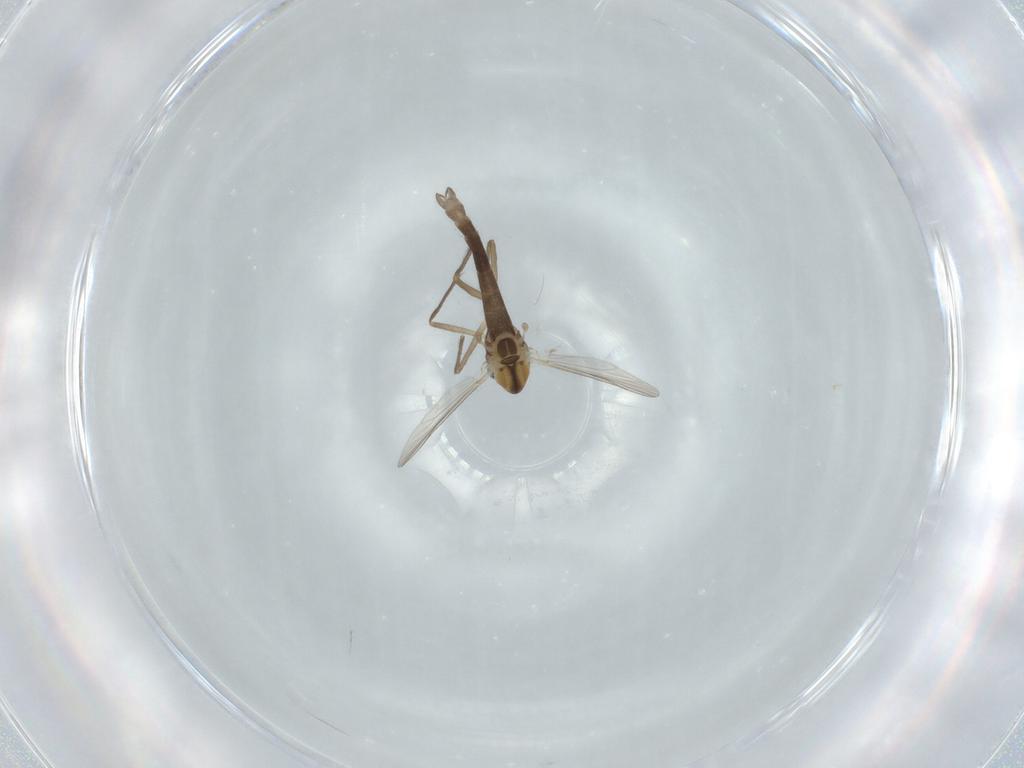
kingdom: Animalia
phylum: Arthropoda
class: Insecta
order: Diptera
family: Chironomidae
